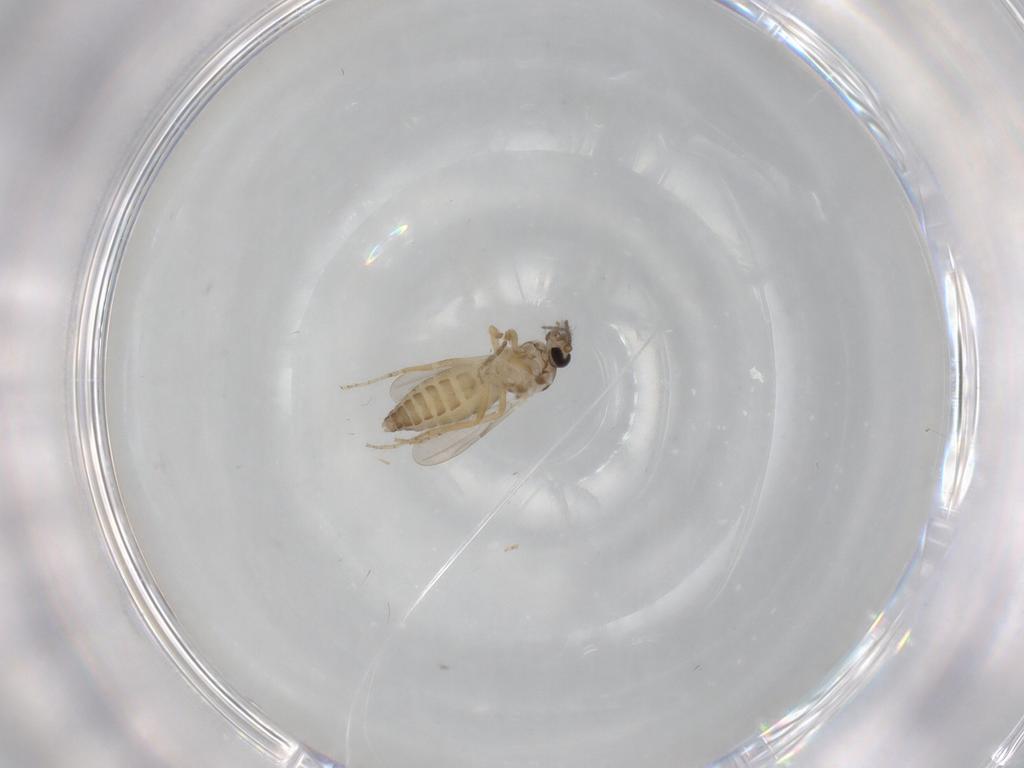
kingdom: Animalia
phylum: Arthropoda
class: Insecta
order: Diptera
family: Ceratopogonidae
